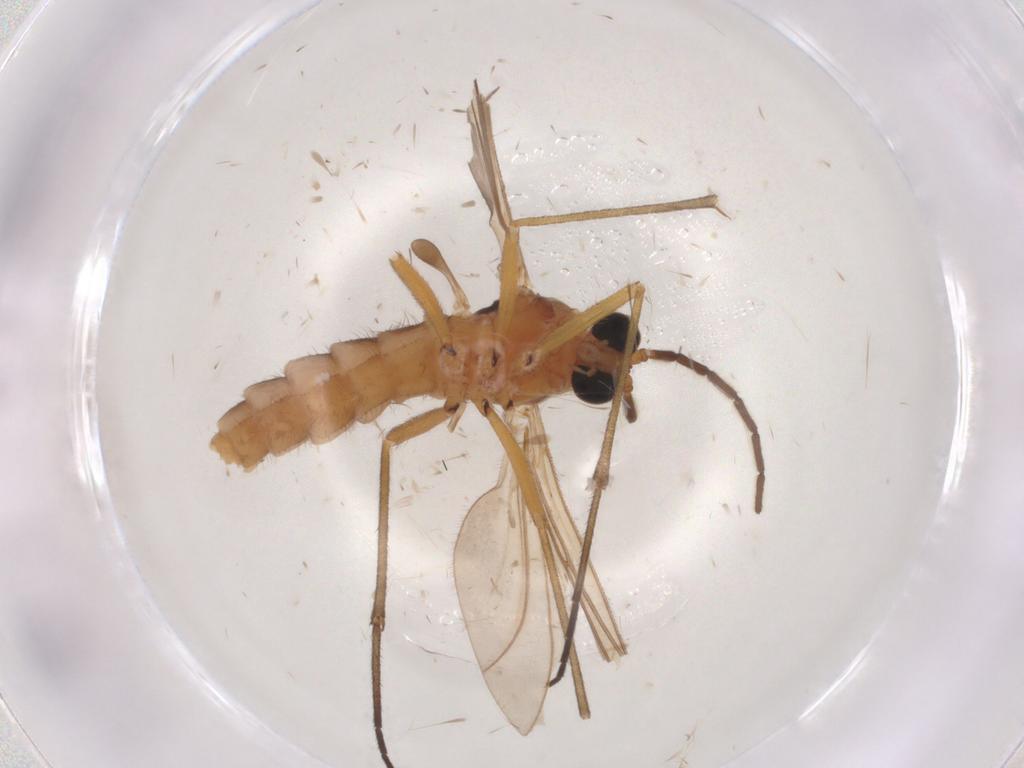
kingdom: Animalia
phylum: Arthropoda
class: Insecta
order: Diptera
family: Sciaridae
